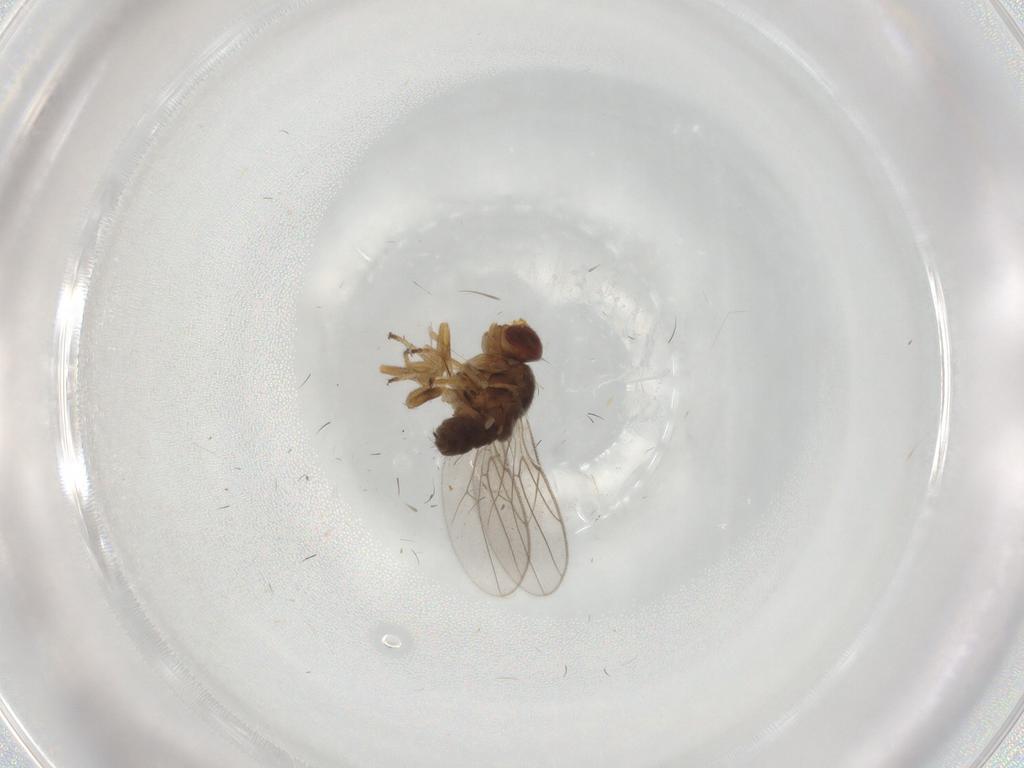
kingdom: Animalia
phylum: Arthropoda
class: Insecta
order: Diptera
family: Chloropidae
